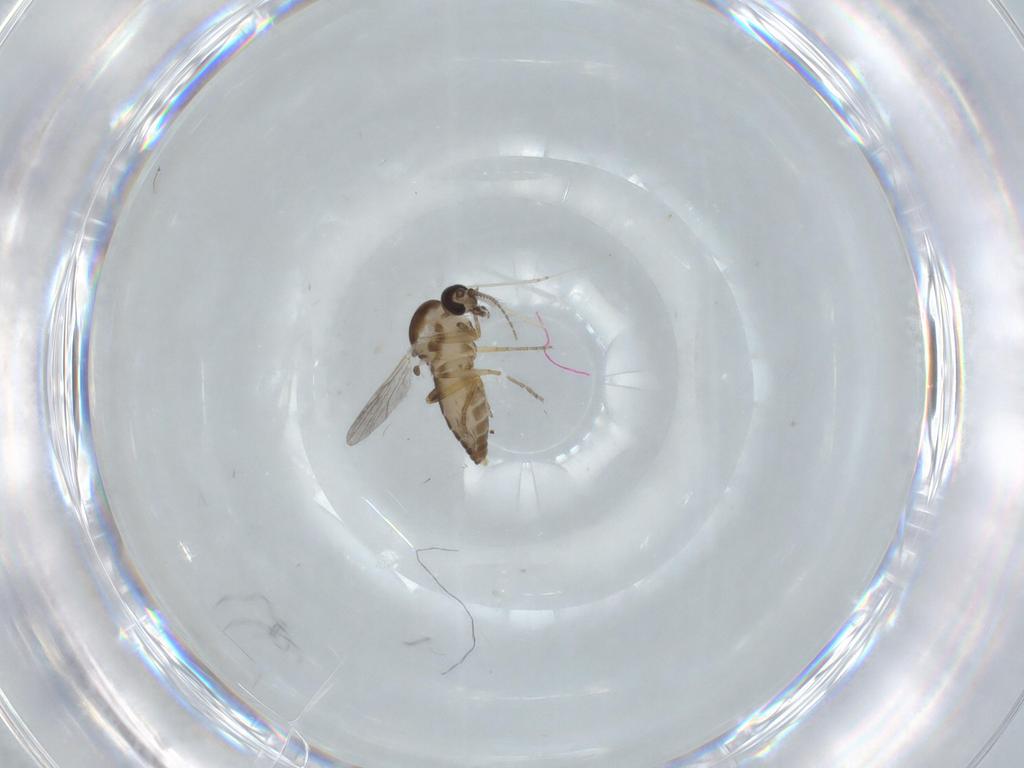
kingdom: Animalia
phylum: Arthropoda
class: Insecta
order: Diptera
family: Ceratopogonidae
